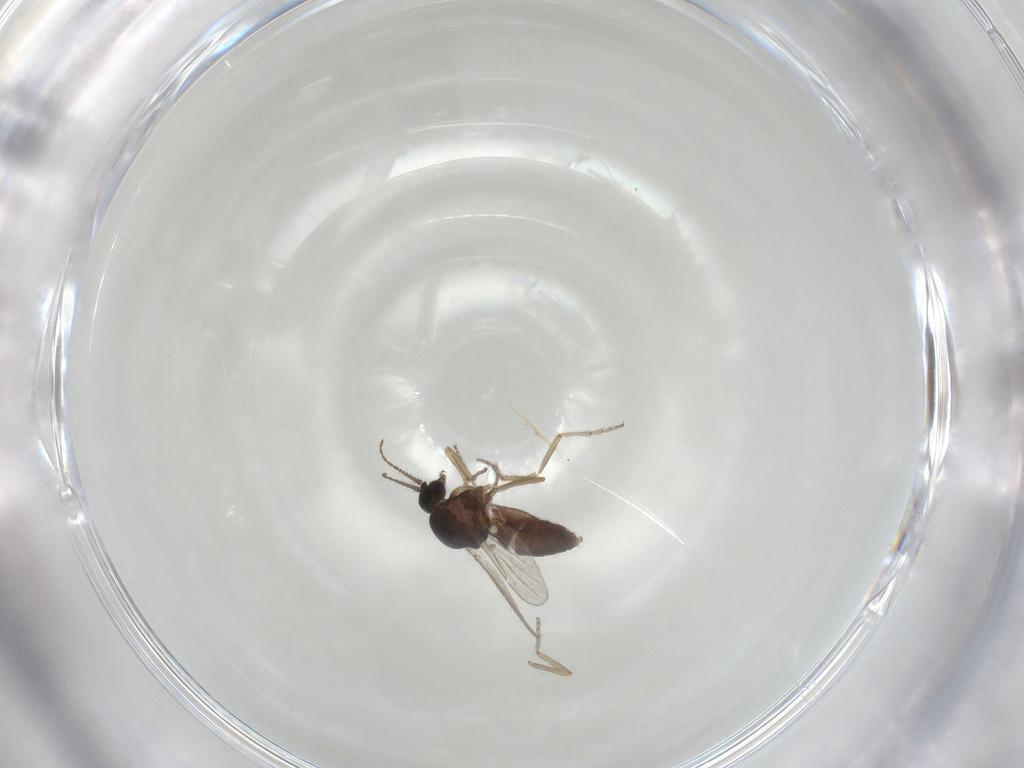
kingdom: Animalia
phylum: Arthropoda
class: Insecta
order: Diptera
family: Ceratopogonidae
